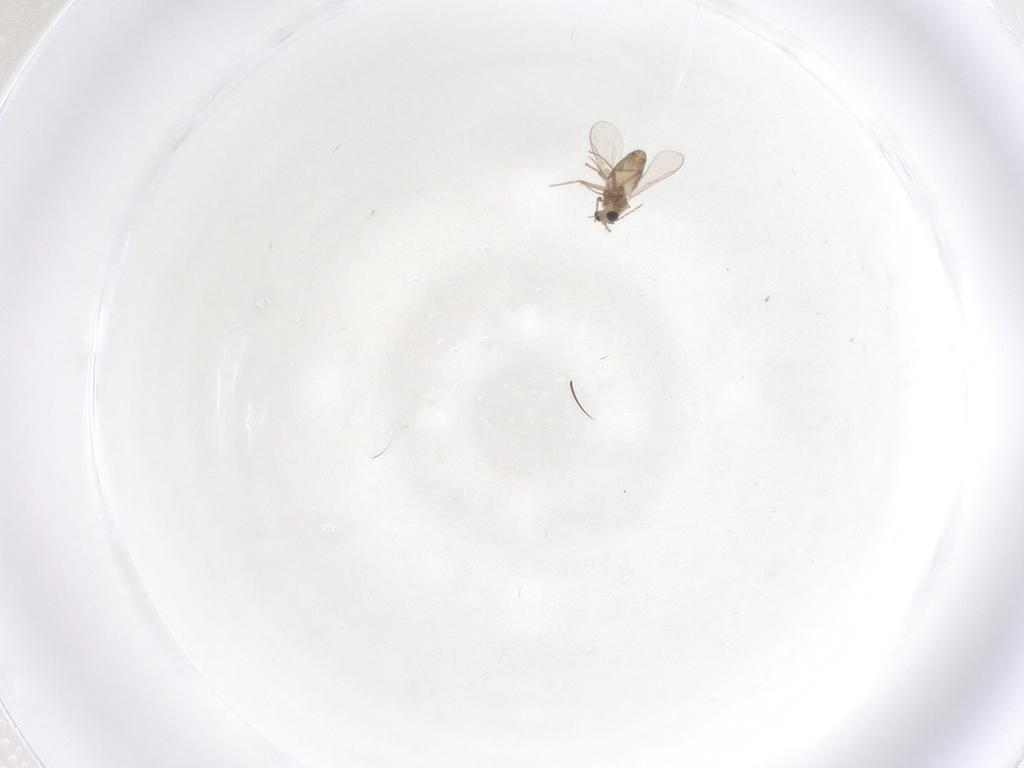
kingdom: Animalia
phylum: Arthropoda
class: Insecta
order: Diptera
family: Chironomidae
